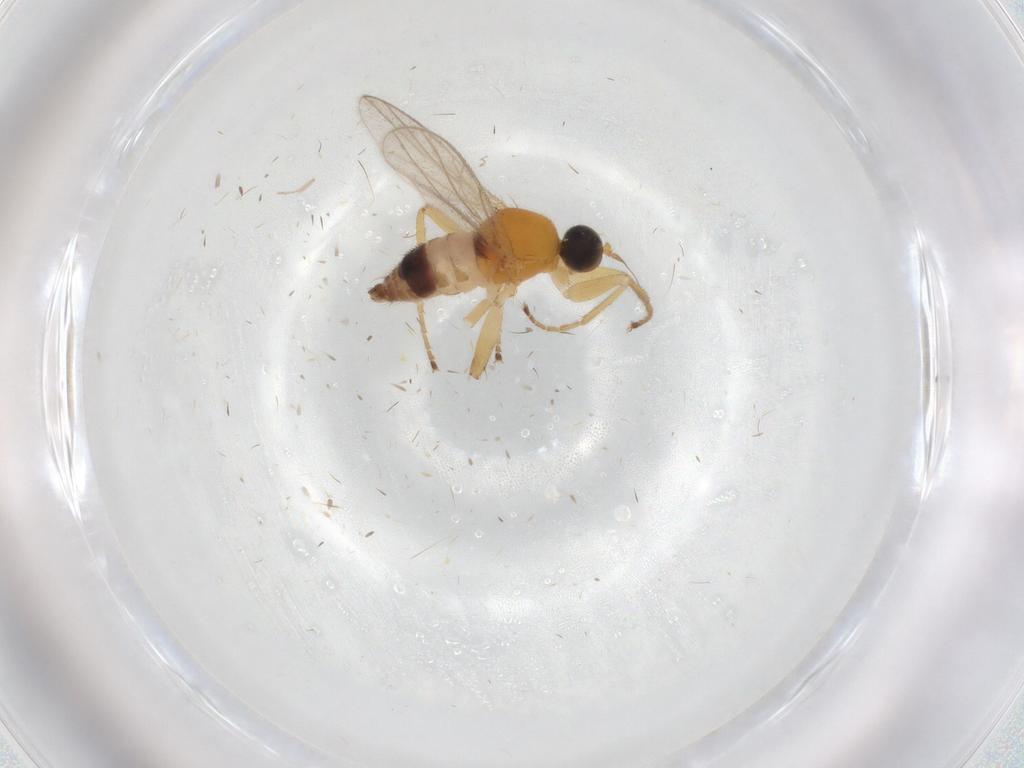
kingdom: Animalia
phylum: Arthropoda
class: Insecta
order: Diptera
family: Hybotidae
